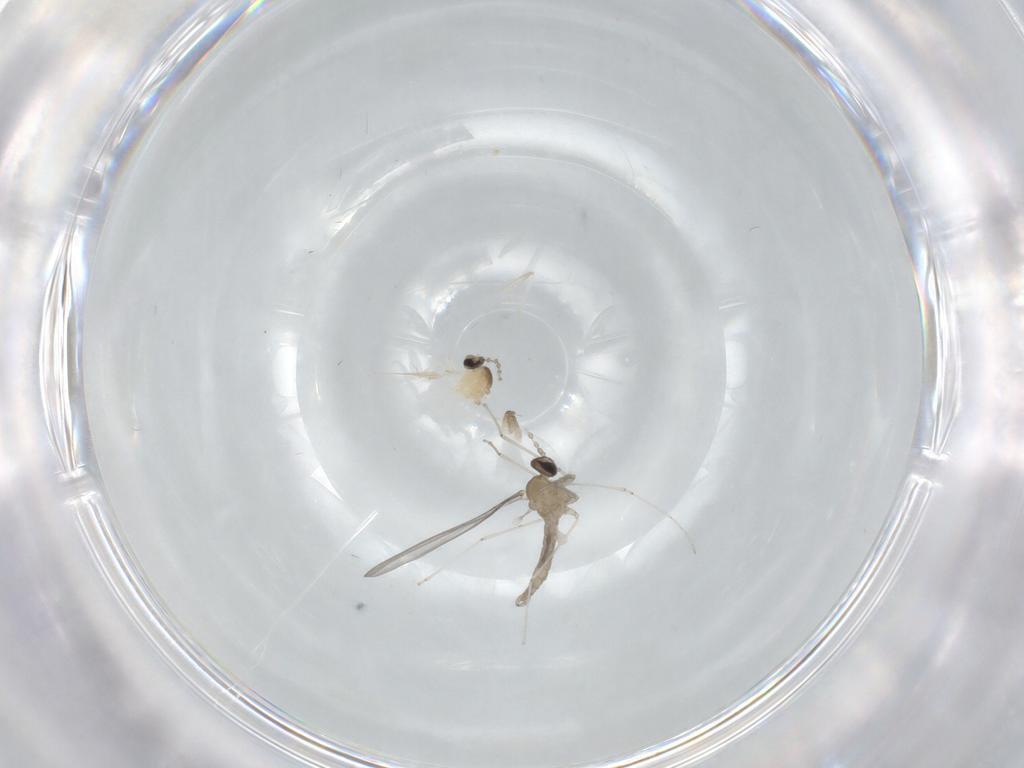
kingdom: Animalia
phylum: Arthropoda
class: Insecta
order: Diptera
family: Cecidomyiidae
